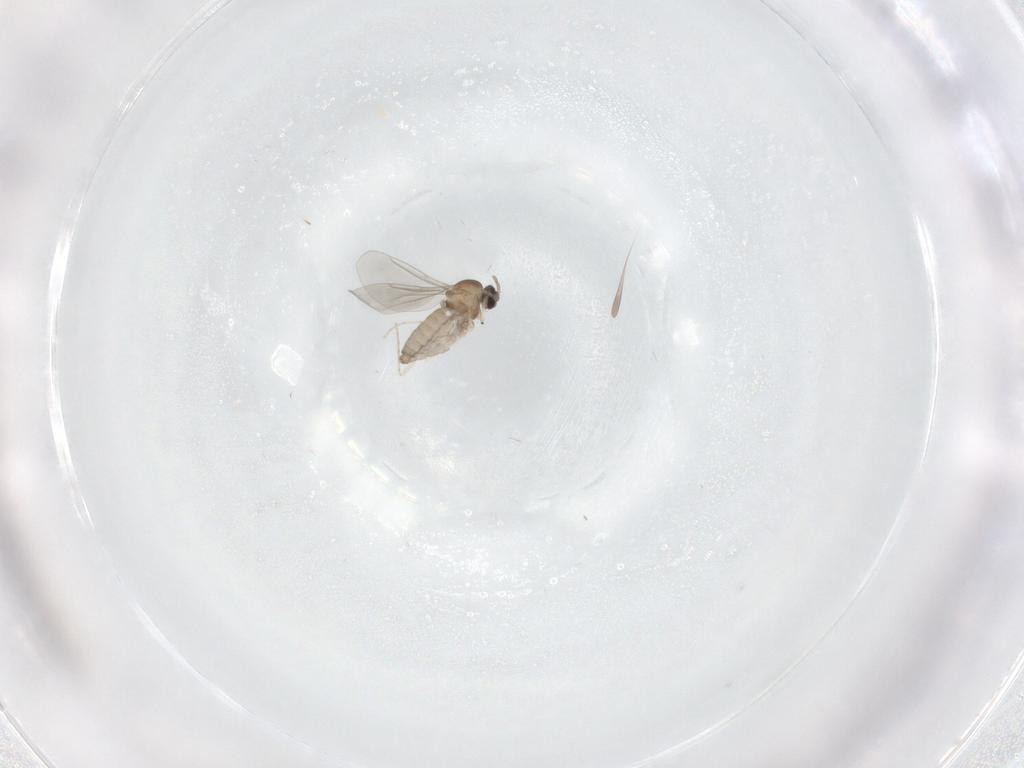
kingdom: Animalia
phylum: Arthropoda
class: Insecta
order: Diptera
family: Cecidomyiidae
